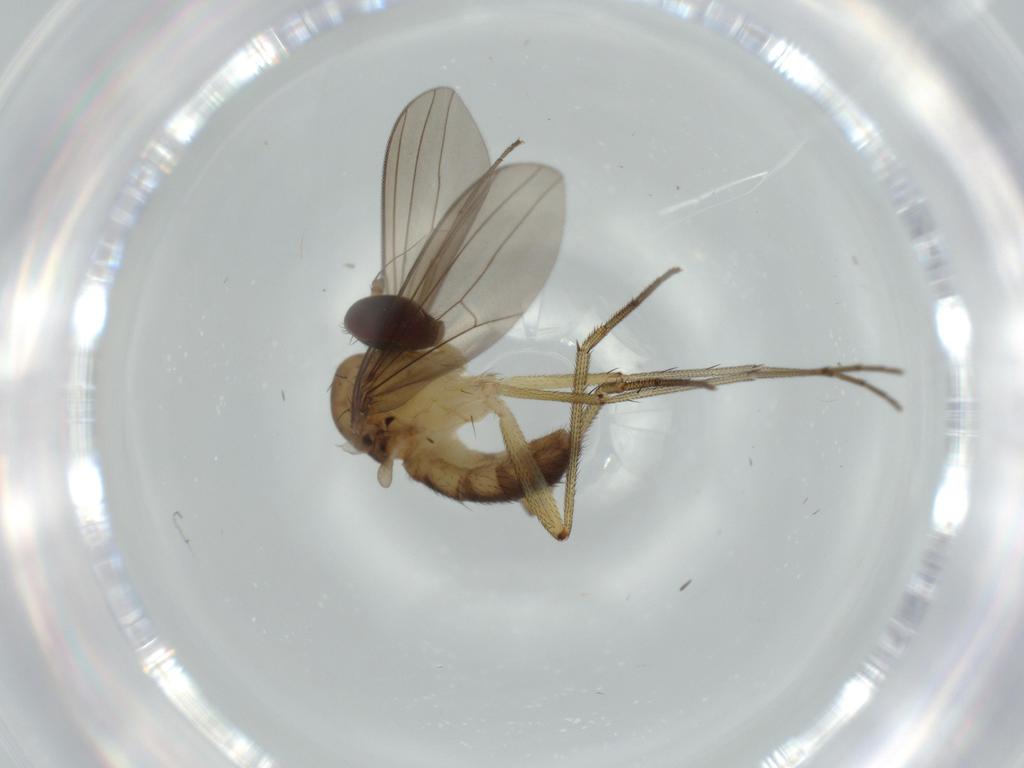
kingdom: Animalia
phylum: Arthropoda
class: Insecta
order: Diptera
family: Dolichopodidae
